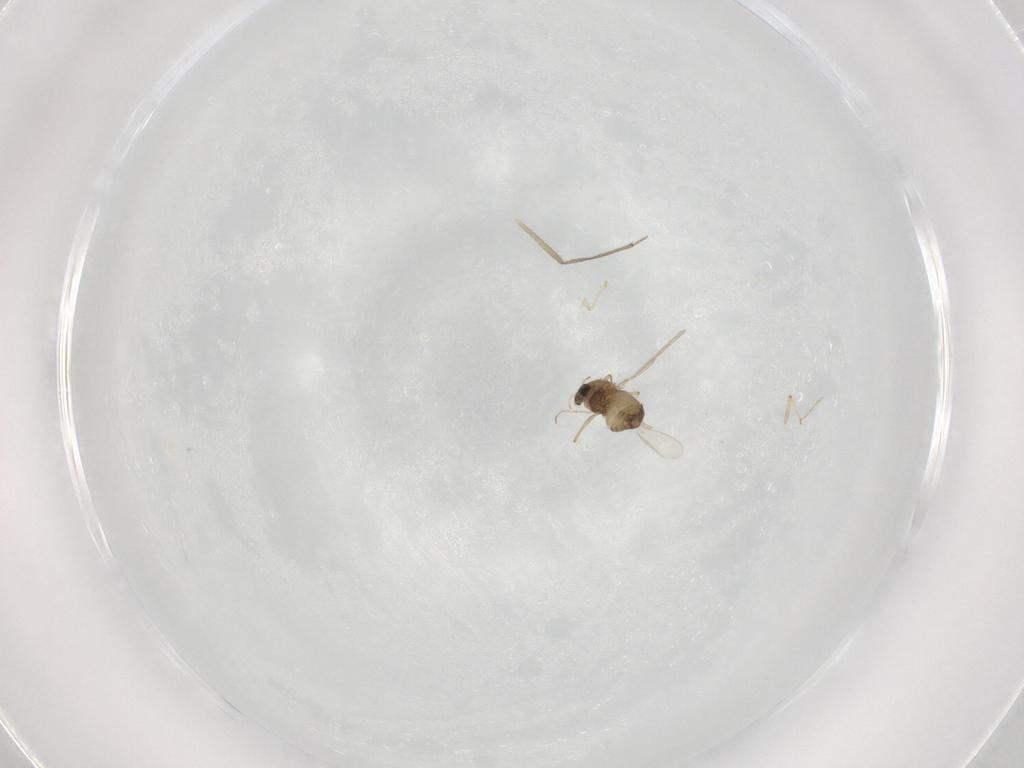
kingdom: Animalia
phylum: Arthropoda
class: Insecta
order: Diptera
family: Chironomidae
